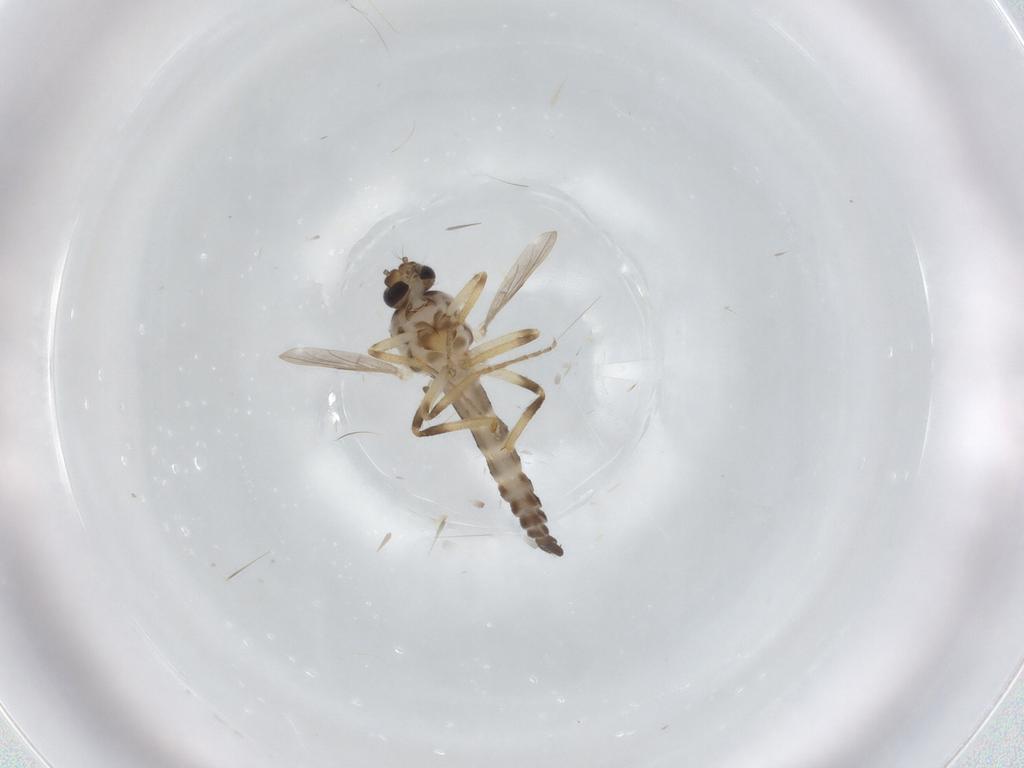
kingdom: Animalia
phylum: Arthropoda
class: Insecta
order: Diptera
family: Ceratopogonidae
